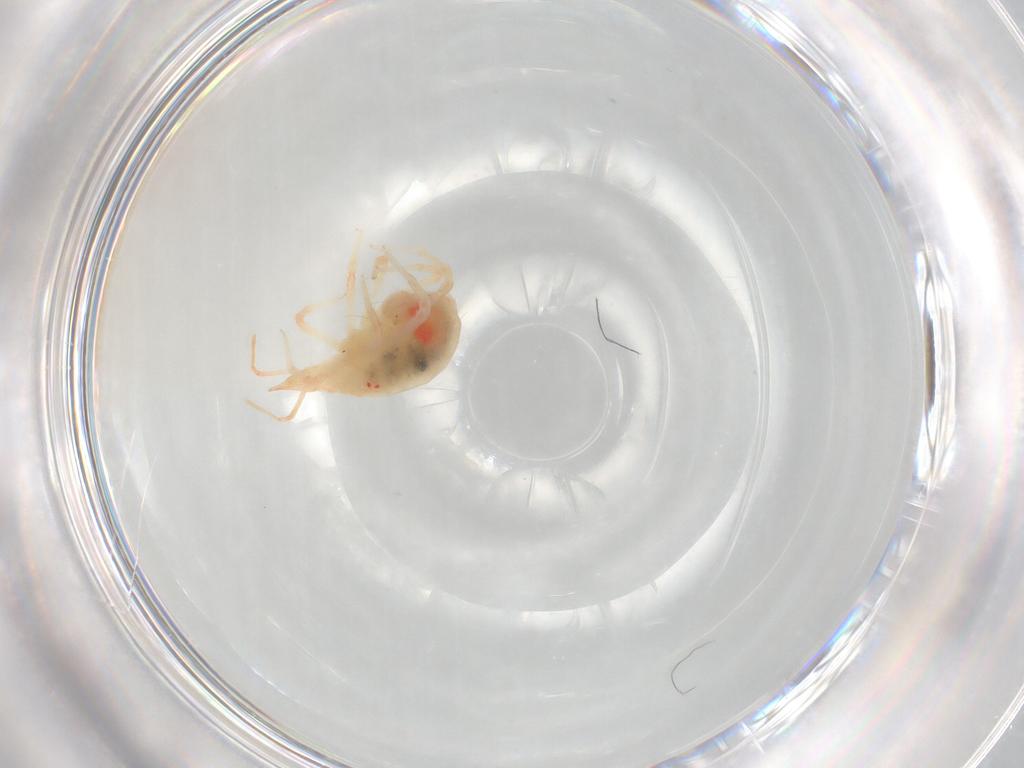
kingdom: Animalia
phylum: Arthropoda
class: Arachnida
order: Trombidiformes
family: Bdellidae
